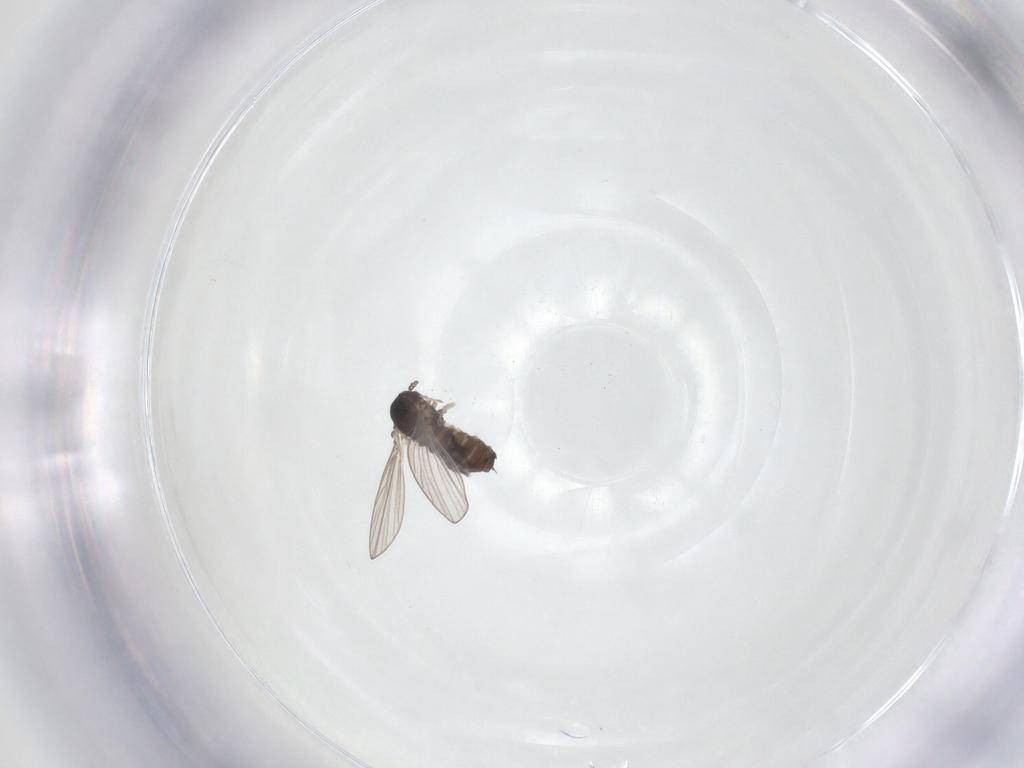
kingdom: Animalia
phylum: Arthropoda
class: Insecta
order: Diptera
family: Psychodidae
